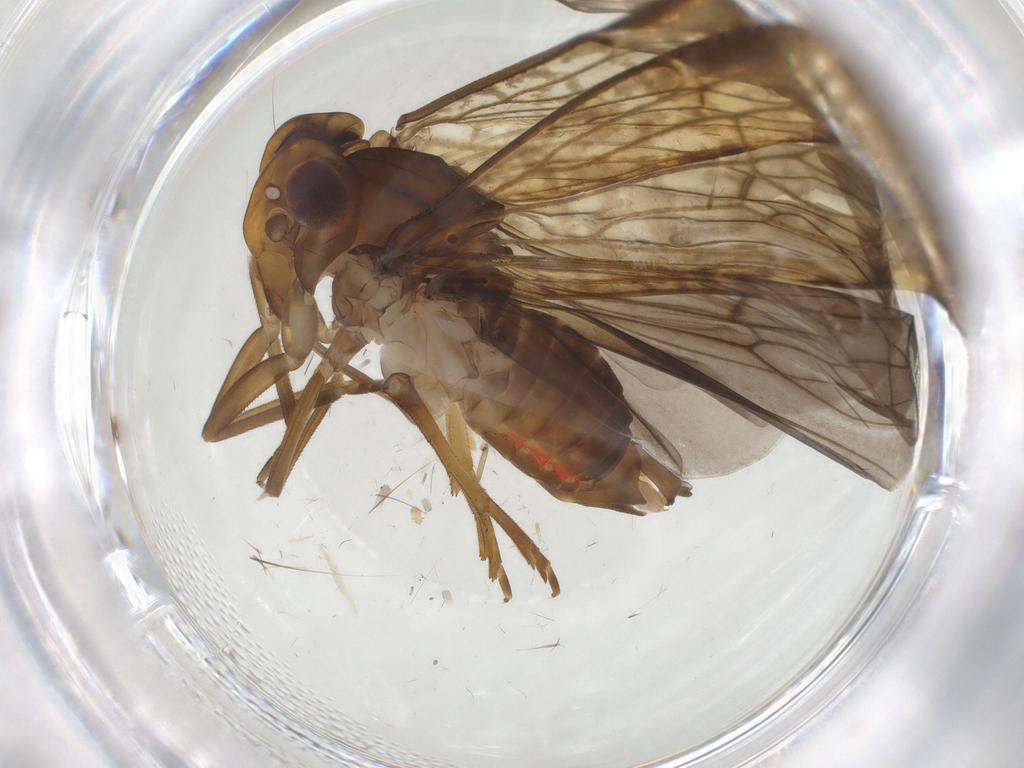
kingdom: Animalia
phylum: Arthropoda
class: Insecta
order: Hemiptera
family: Cixiidae
